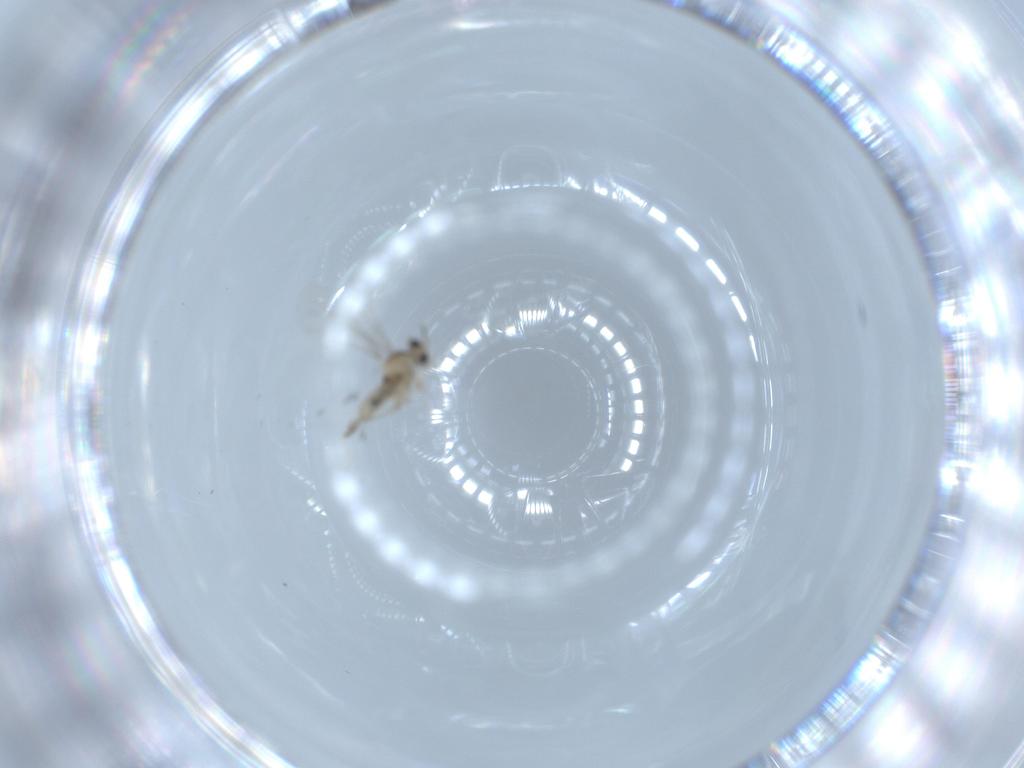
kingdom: Animalia
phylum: Arthropoda
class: Insecta
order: Diptera
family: Cecidomyiidae
